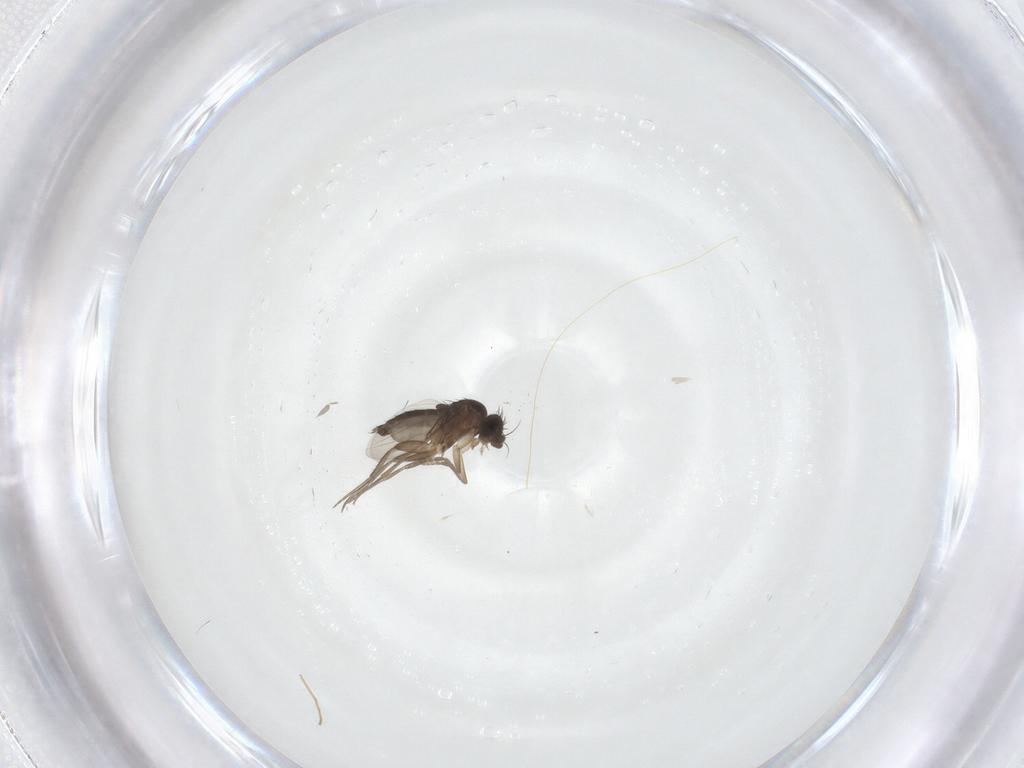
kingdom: Animalia
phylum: Arthropoda
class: Insecta
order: Diptera
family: Phoridae
